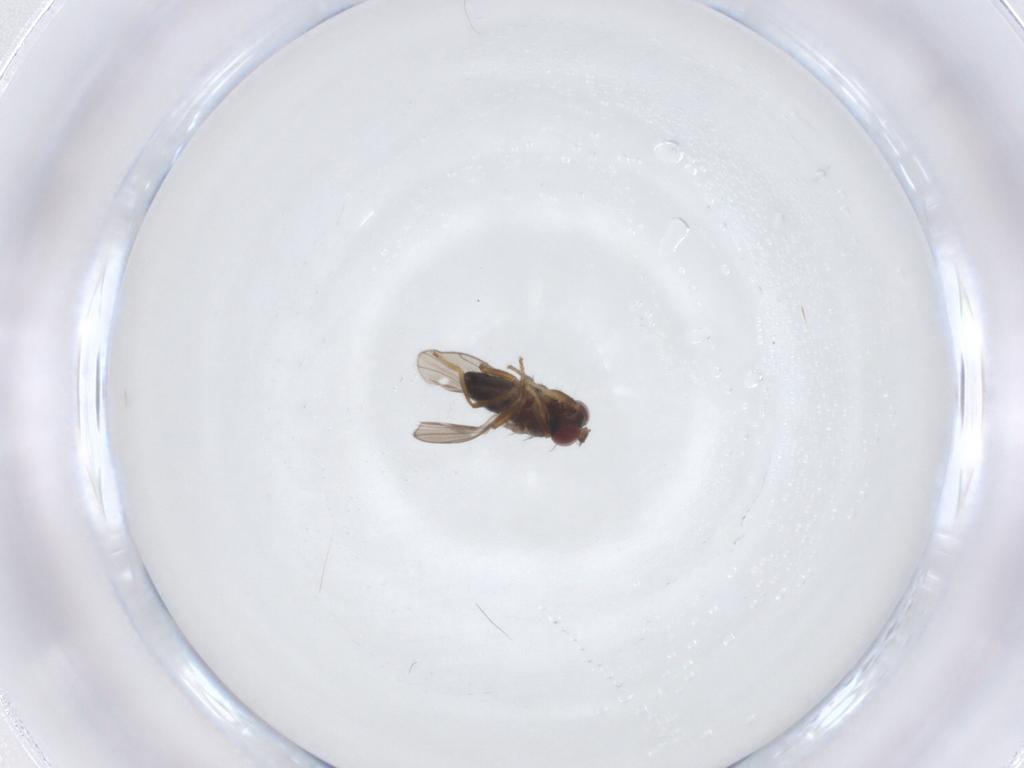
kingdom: Animalia
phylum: Arthropoda
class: Insecta
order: Diptera
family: Ephydridae
